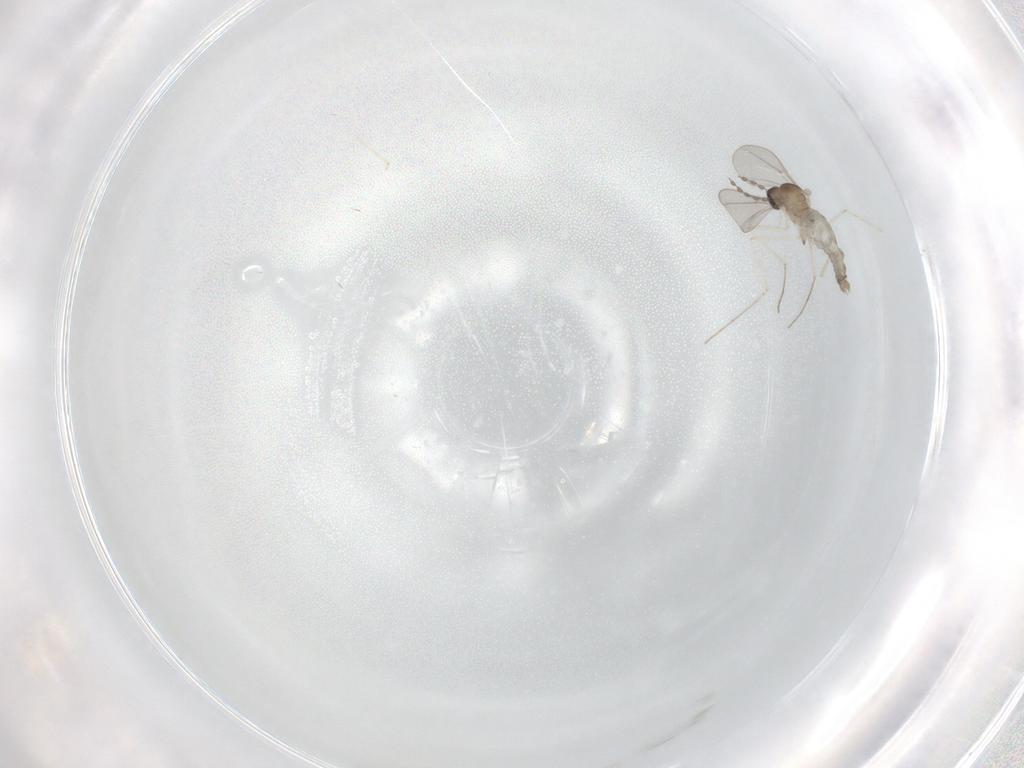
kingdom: Animalia
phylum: Arthropoda
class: Insecta
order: Diptera
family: Cecidomyiidae
